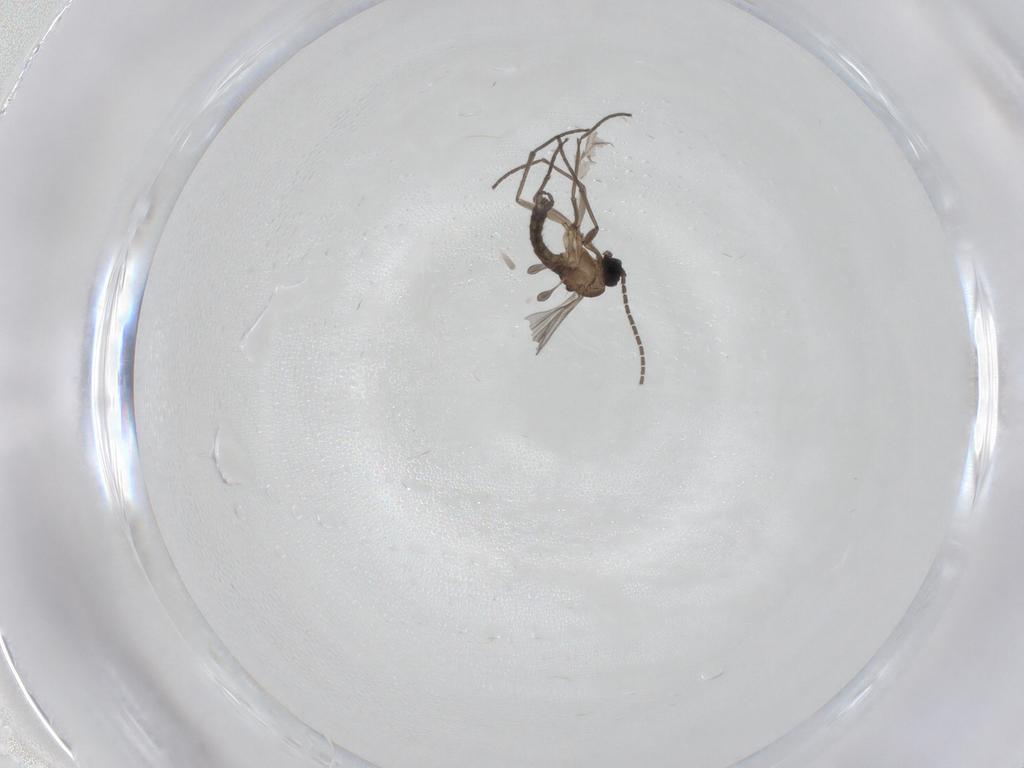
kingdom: Animalia
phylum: Arthropoda
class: Insecta
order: Diptera
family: Sciaridae
